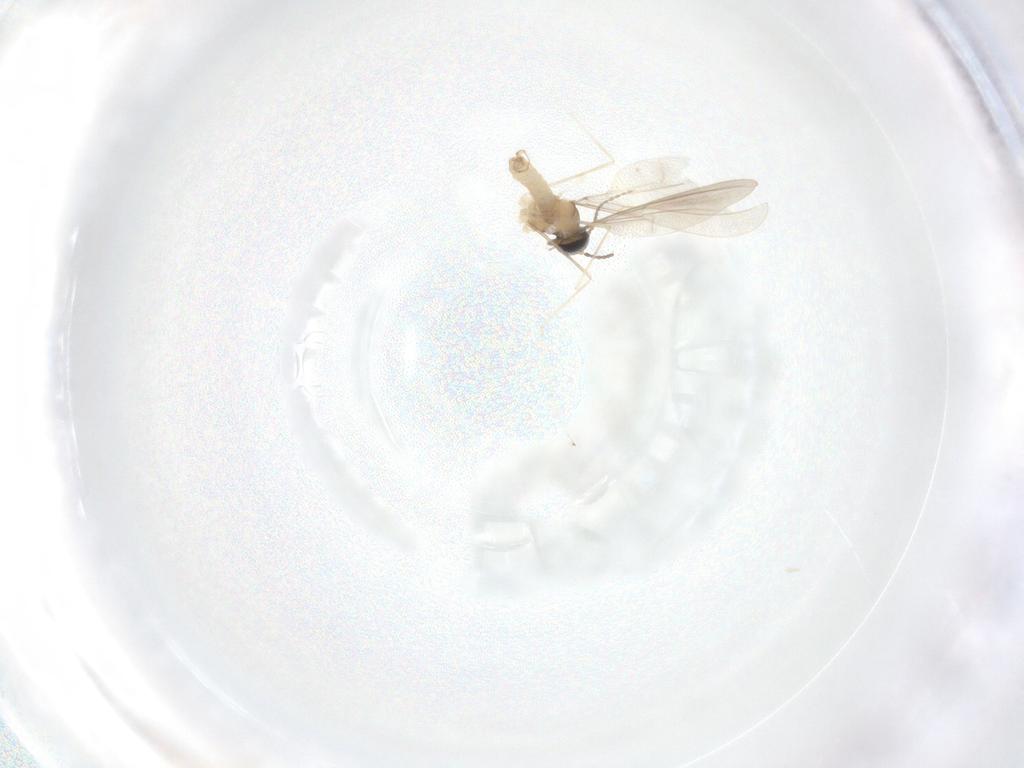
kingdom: Animalia
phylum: Arthropoda
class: Insecta
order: Diptera
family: Cecidomyiidae
